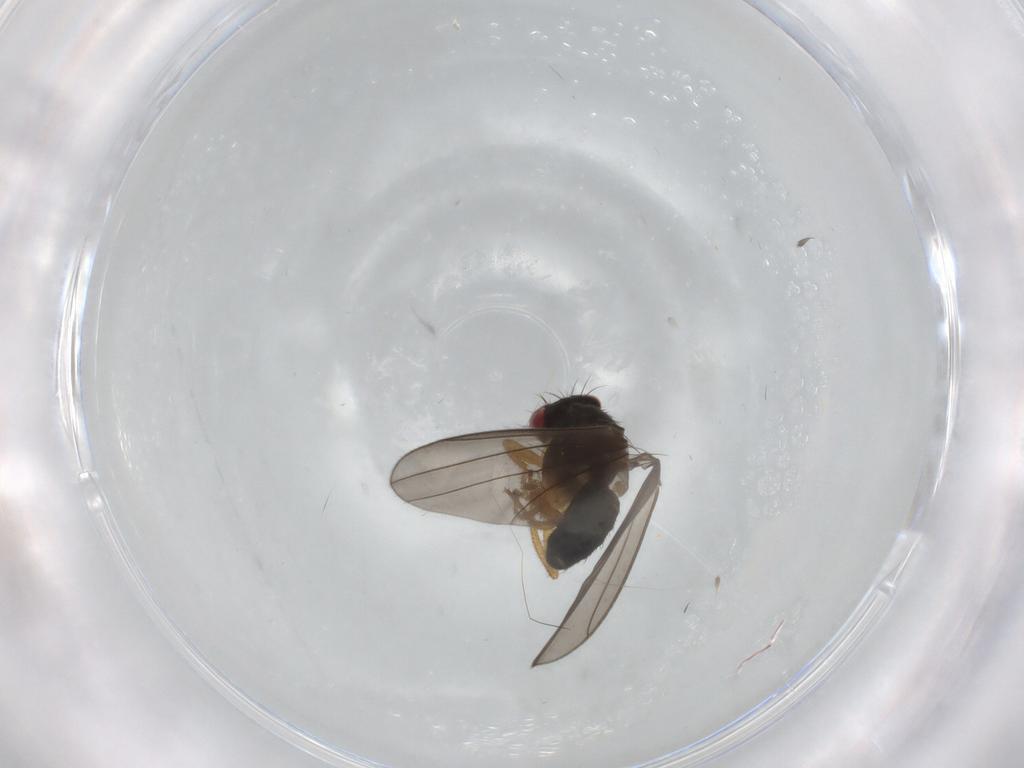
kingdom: Animalia
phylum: Arthropoda
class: Insecta
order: Diptera
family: Drosophilidae
